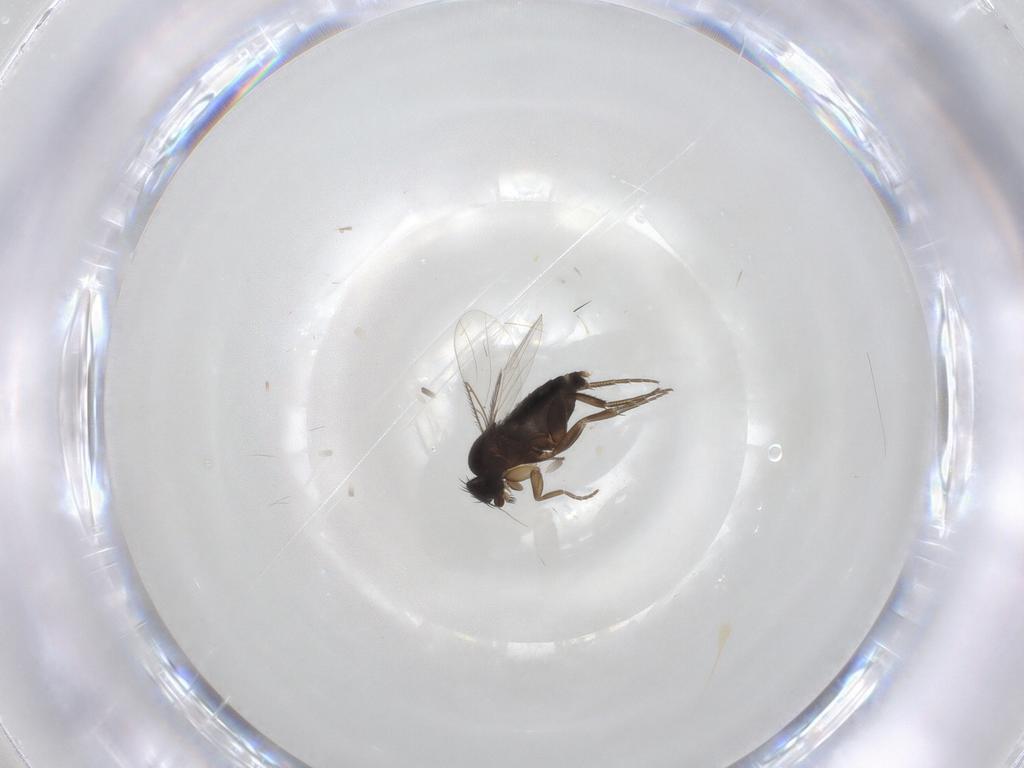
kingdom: Animalia
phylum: Arthropoda
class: Insecta
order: Diptera
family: Phoridae
